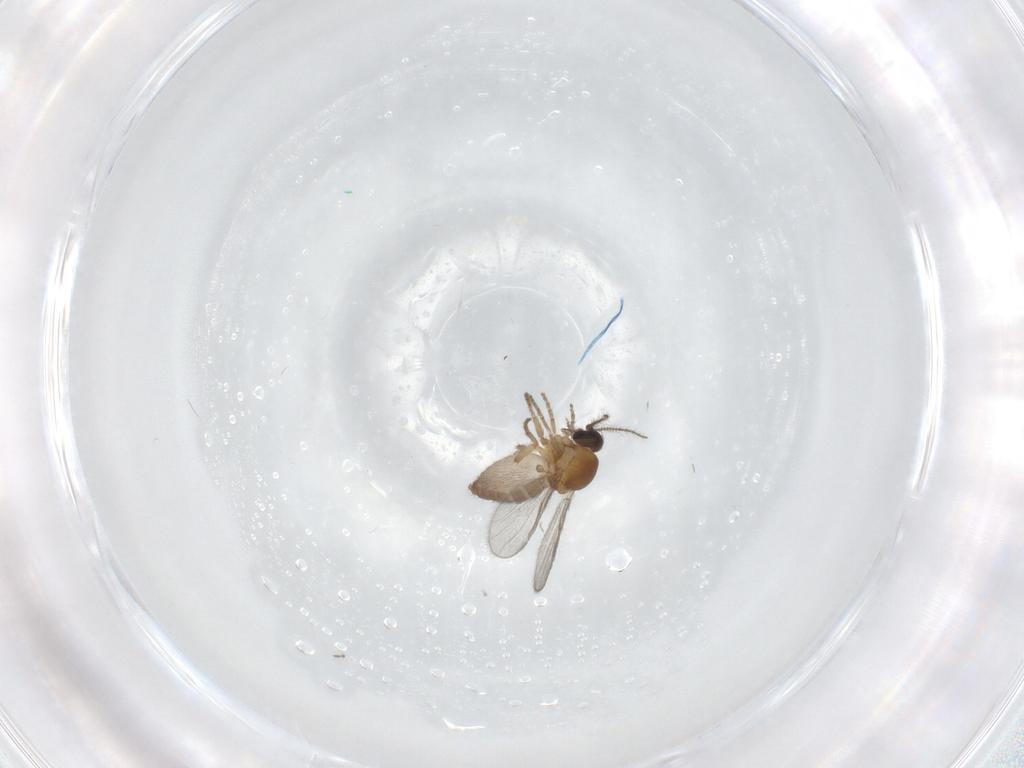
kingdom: Animalia
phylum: Arthropoda
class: Insecta
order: Diptera
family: Ceratopogonidae
